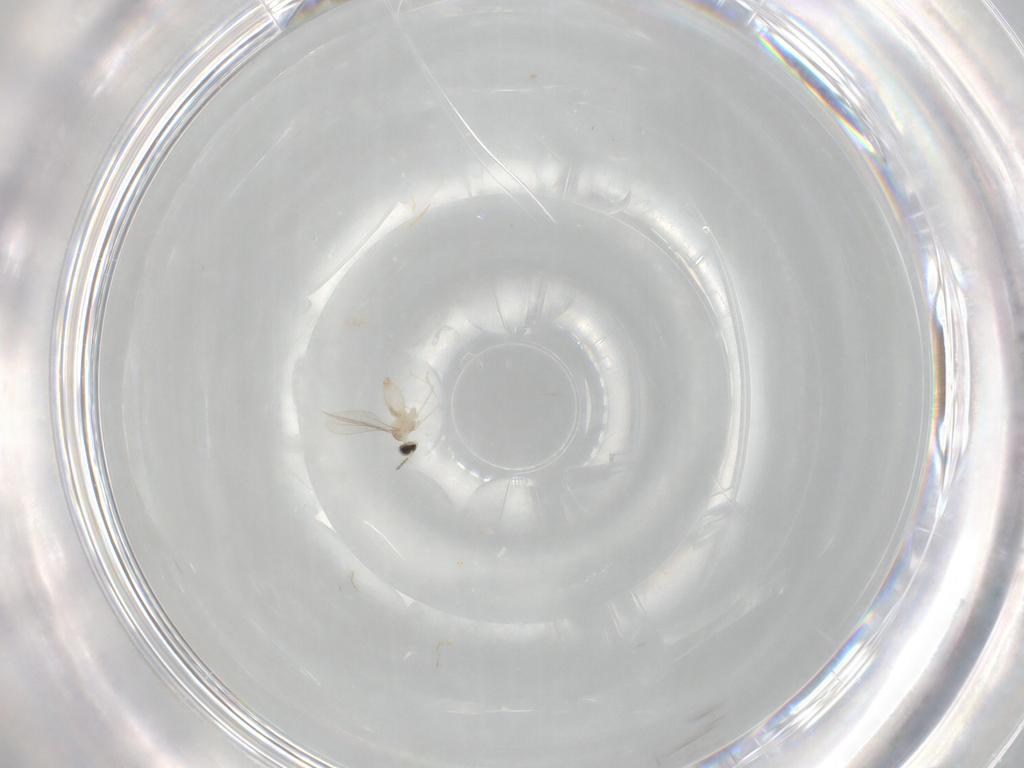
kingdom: Animalia
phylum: Arthropoda
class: Insecta
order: Diptera
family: Cecidomyiidae
